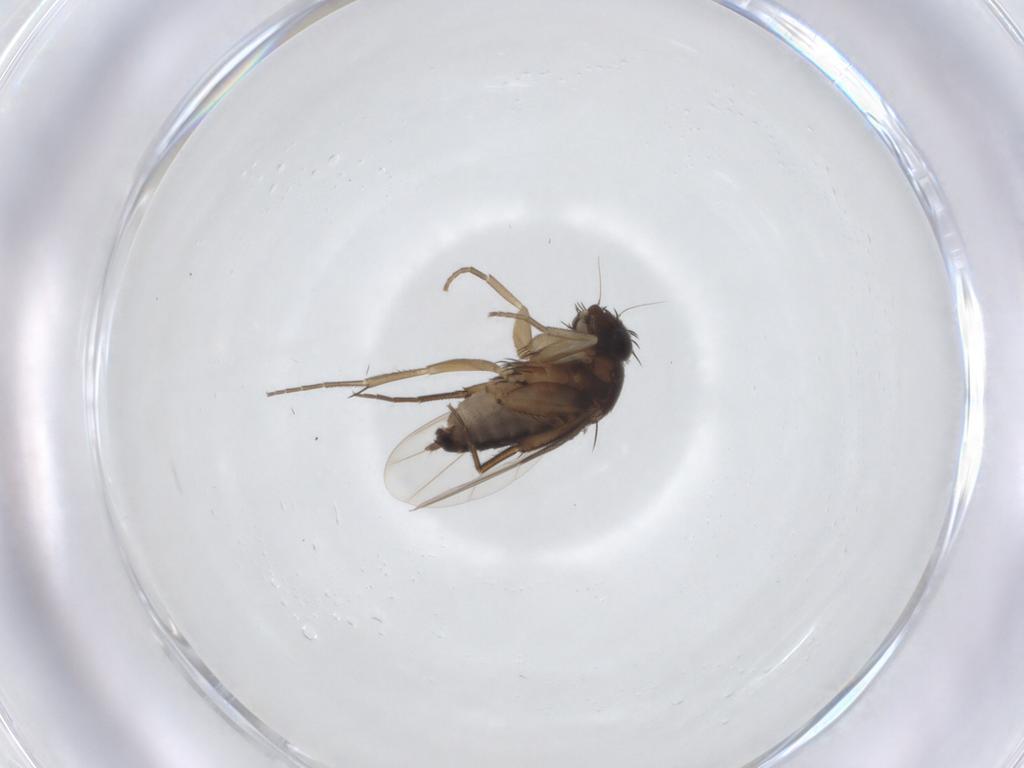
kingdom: Animalia
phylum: Arthropoda
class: Insecta
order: Diptera
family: Phoridae
